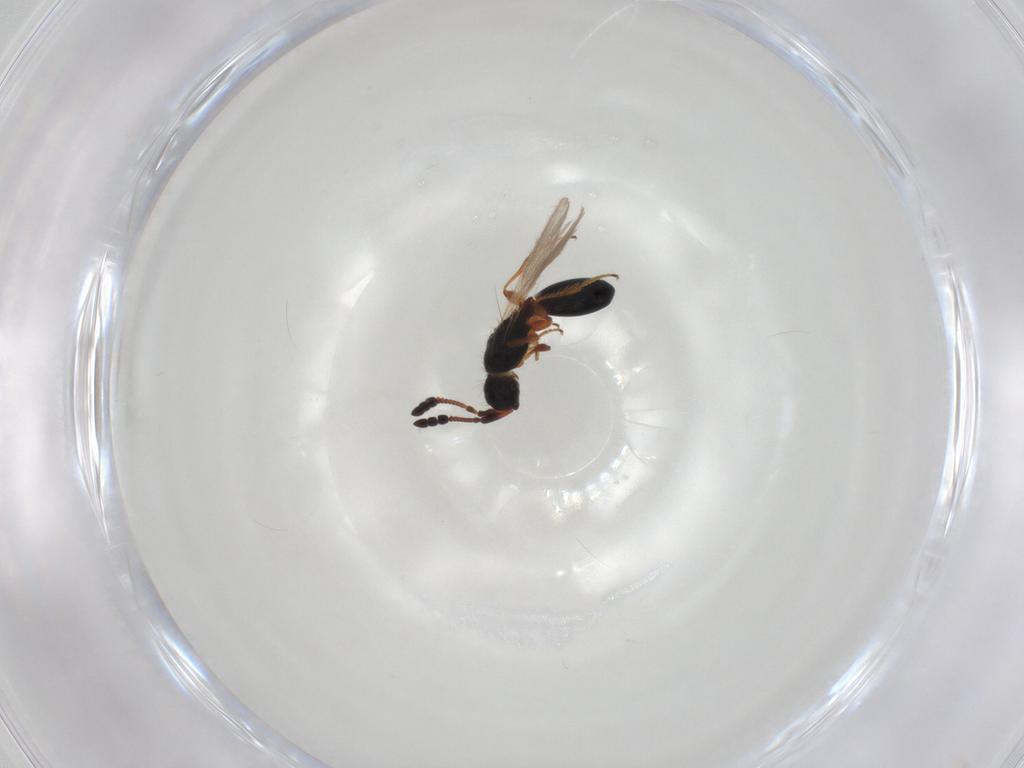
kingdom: Animalia
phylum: Arthropoda
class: Insecta
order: Hymenoptera
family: Diapriidae
